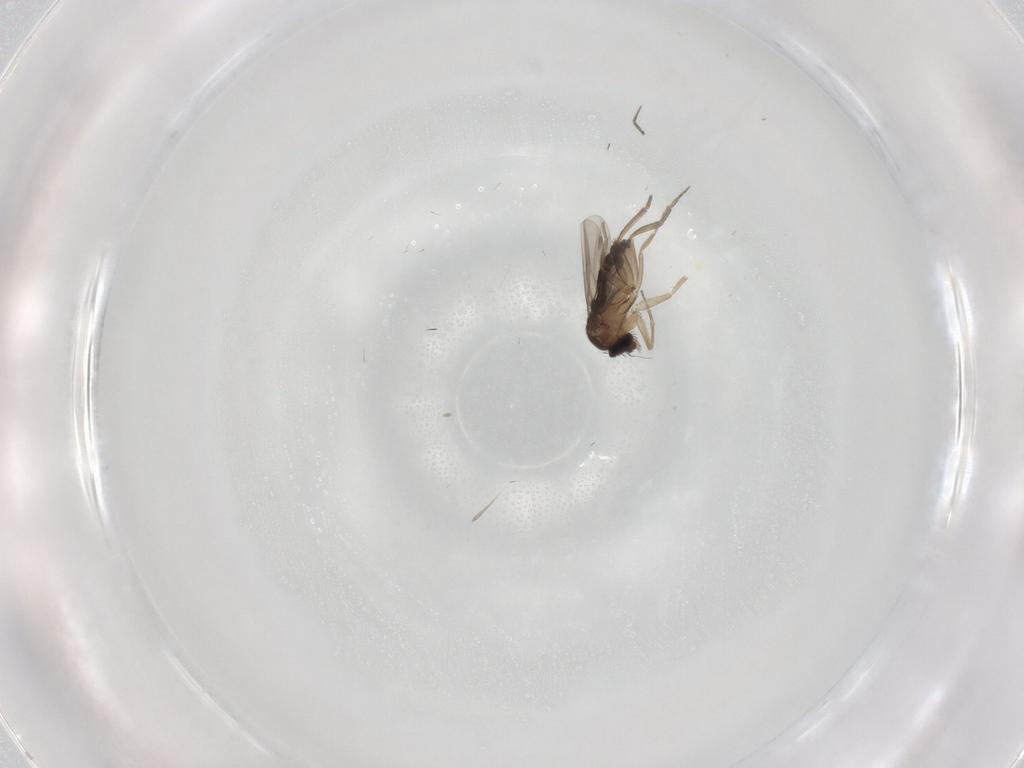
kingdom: Animalia
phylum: Arthropoda
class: Insecta
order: Diptera
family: Phoridae
